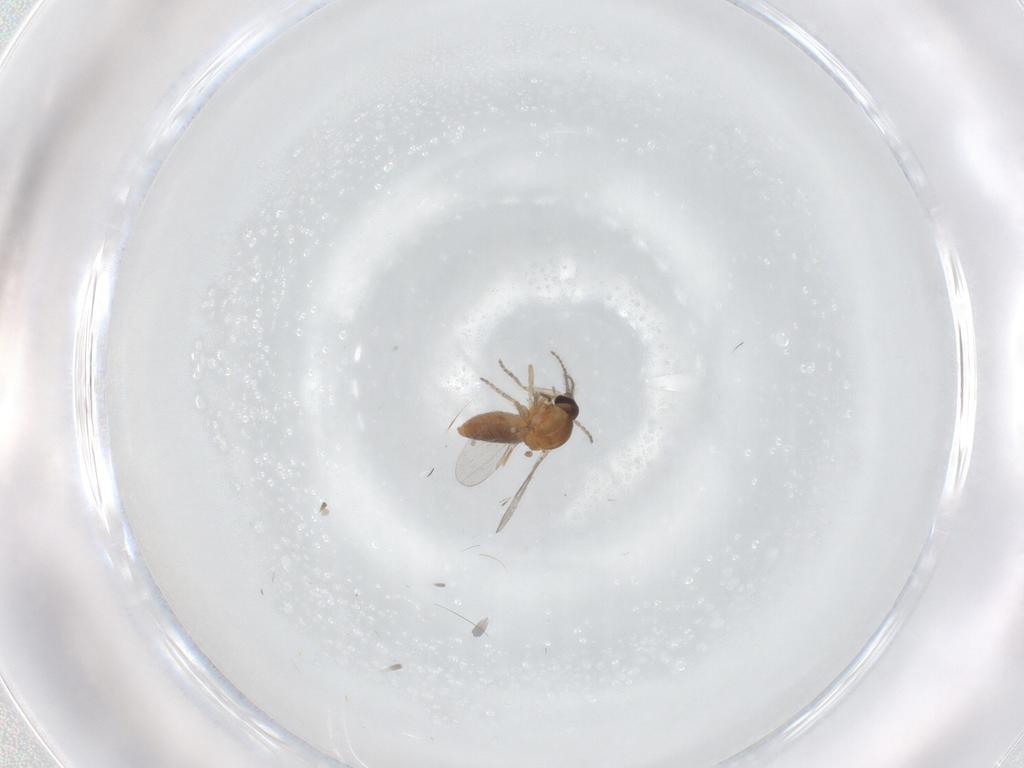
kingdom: Animalia
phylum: Arthropoda
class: Insecta
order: Diptera
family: Ceratopogonidae
